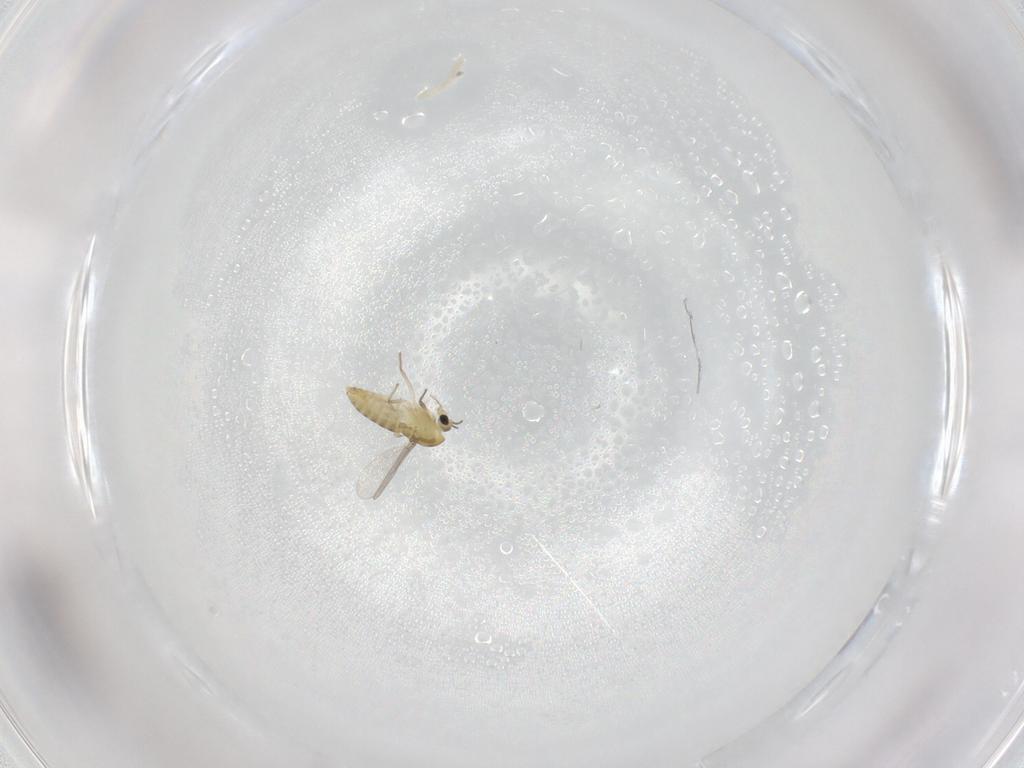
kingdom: Animalia
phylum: Arthropoda
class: Insecta
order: Diptera
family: Chironomidae
